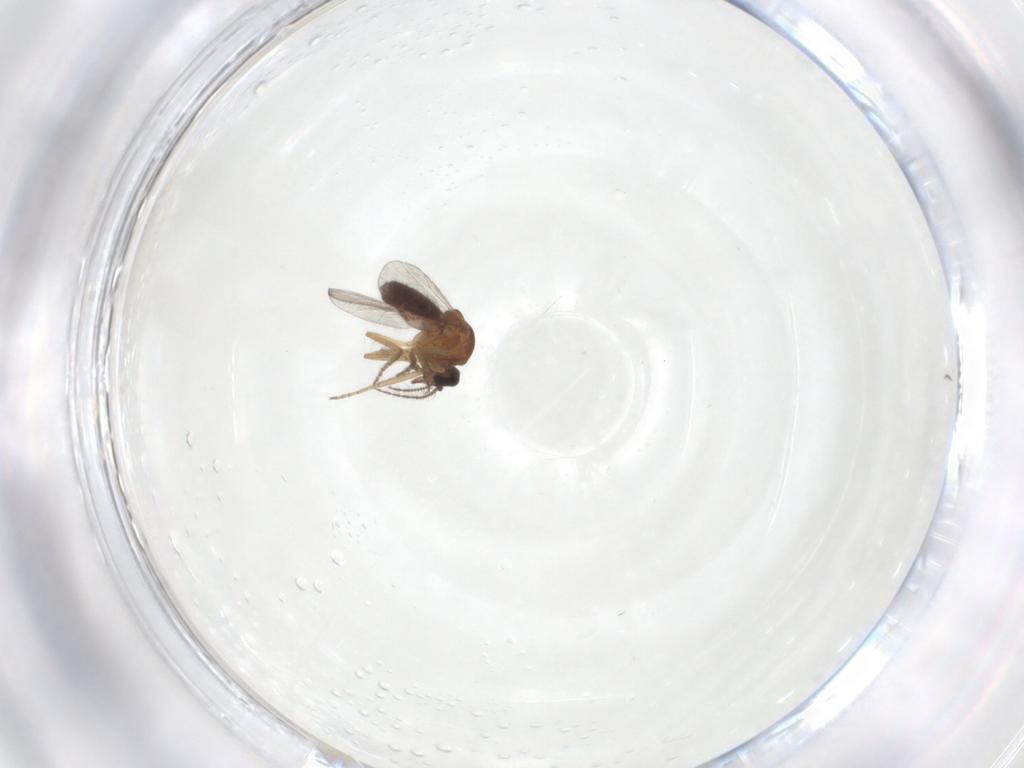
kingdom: Animalia
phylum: Arthropoda
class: Insecta
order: Diptera
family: Ceratopogonidae
